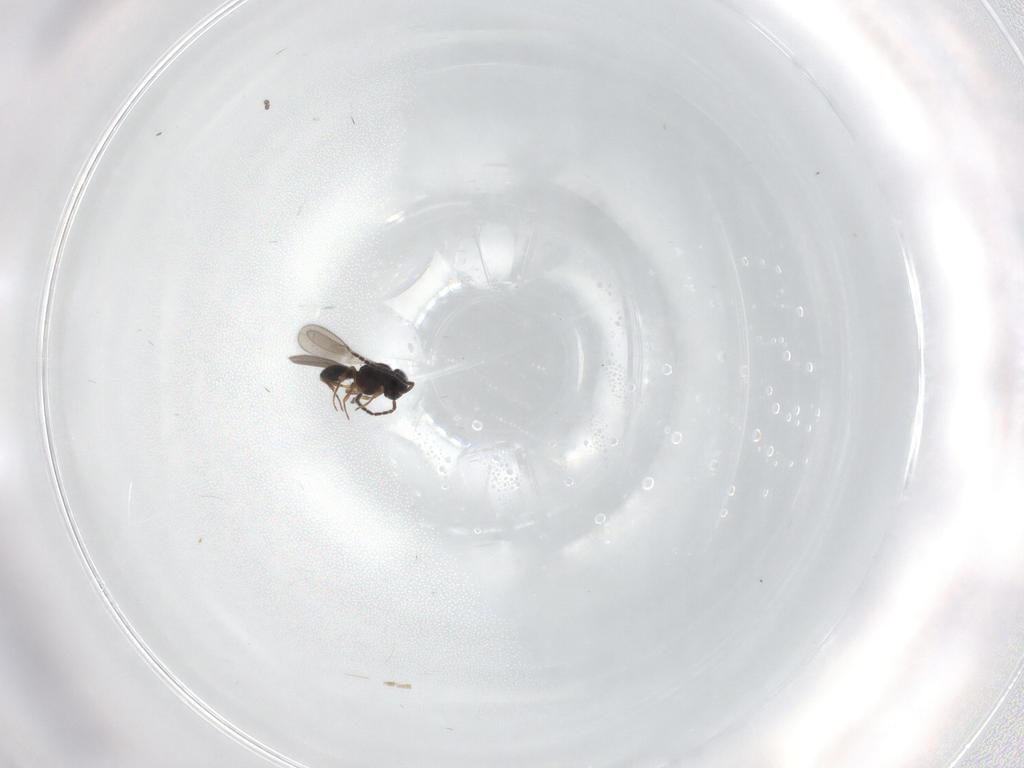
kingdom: Animalia
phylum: Arthropoda
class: Insecta
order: Hymenoptera
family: Scelionidae
